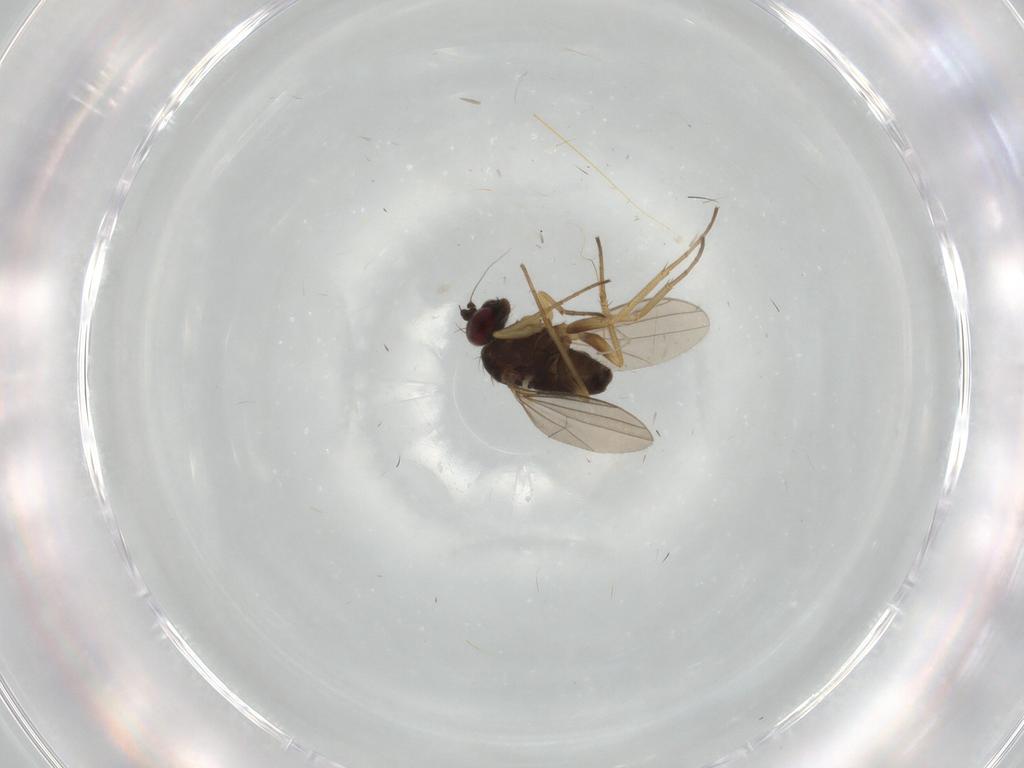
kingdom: Animalia
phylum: Arthropoda
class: Insecta
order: Diptera
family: Dolichopodidae
